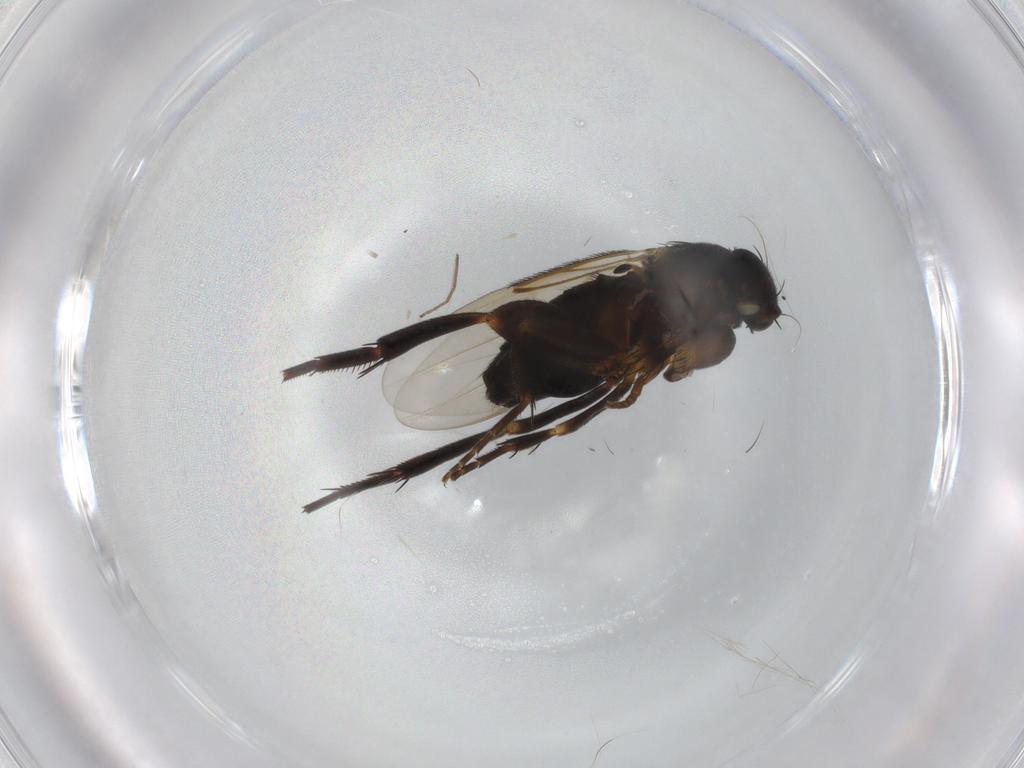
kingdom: Animalia
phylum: Arthropoda
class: Insecta
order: Diptera
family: Phoridae
